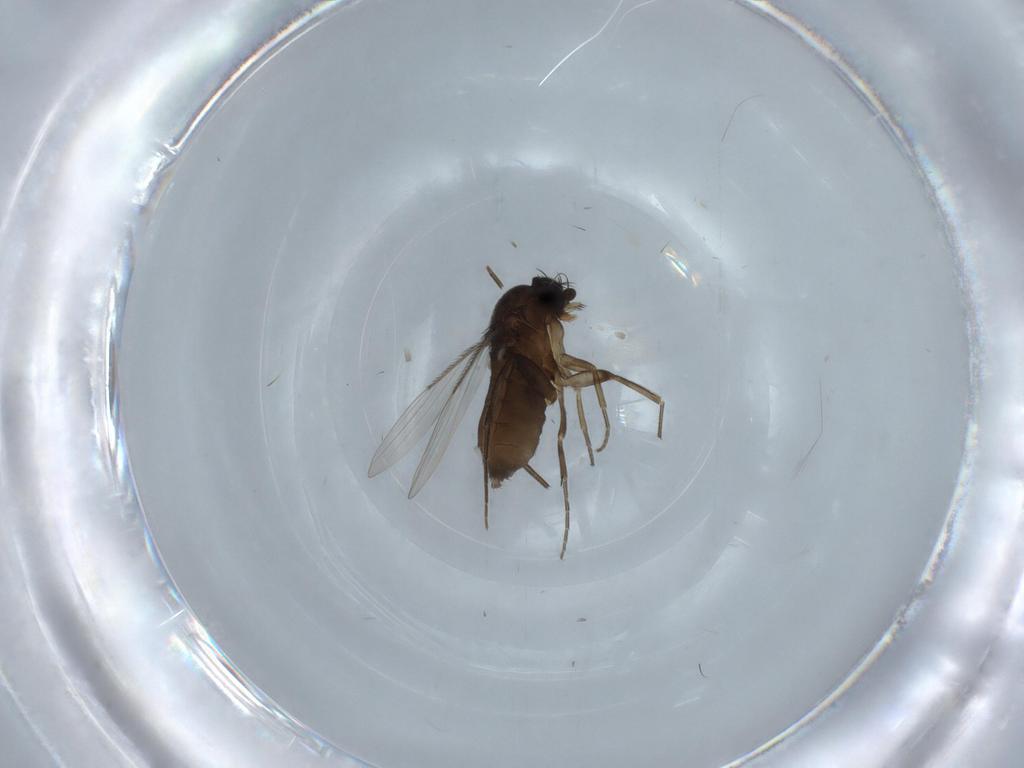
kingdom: Animalia
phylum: Arthropoda
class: Insecta
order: Diptera
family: Phoridae
